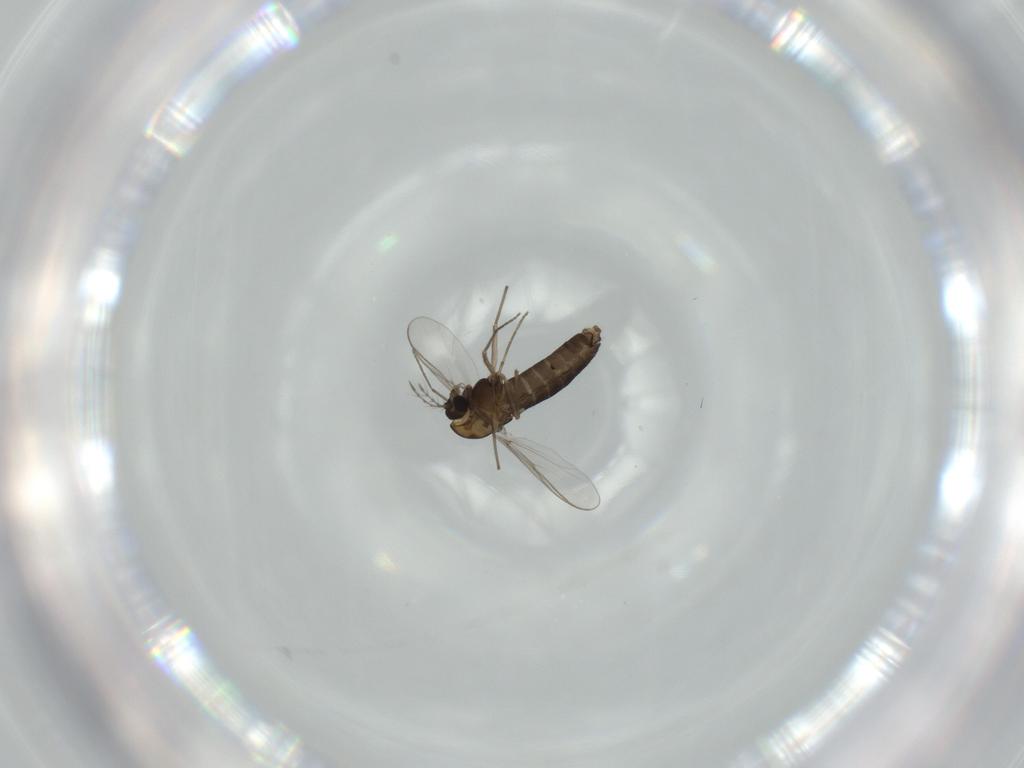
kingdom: Animalia
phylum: Arthropoda
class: Insecta
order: Diptera
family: Chironomidae
